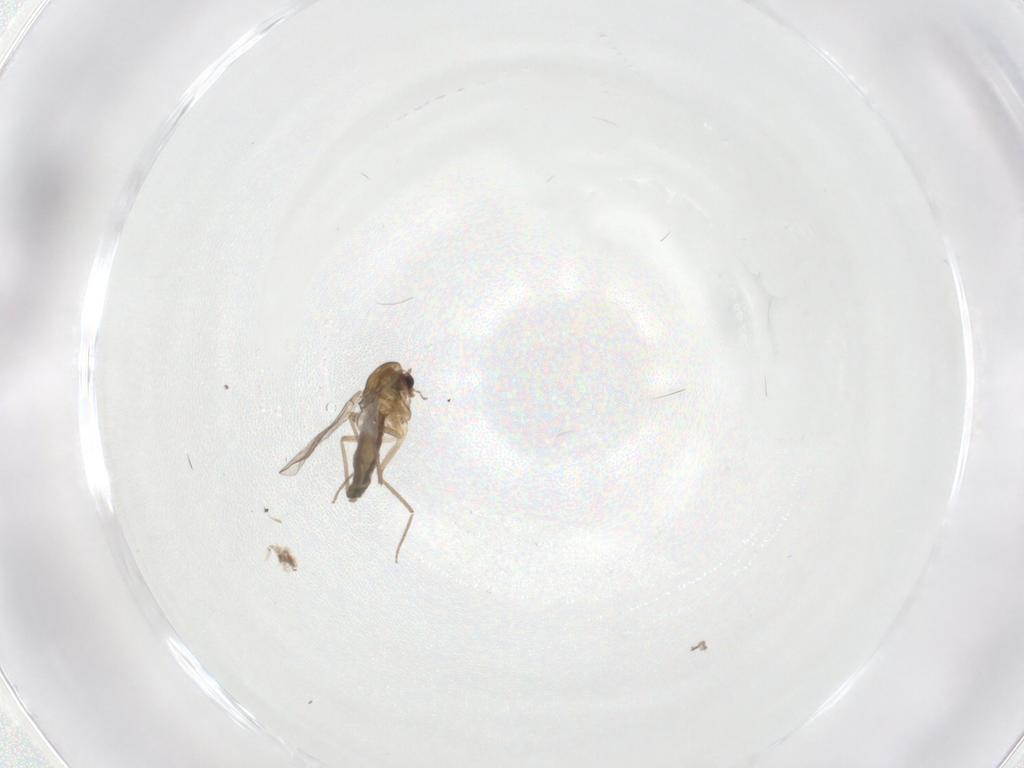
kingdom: Animalia
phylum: Arthropoda
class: Insecta
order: Diptera
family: Chironomidae
